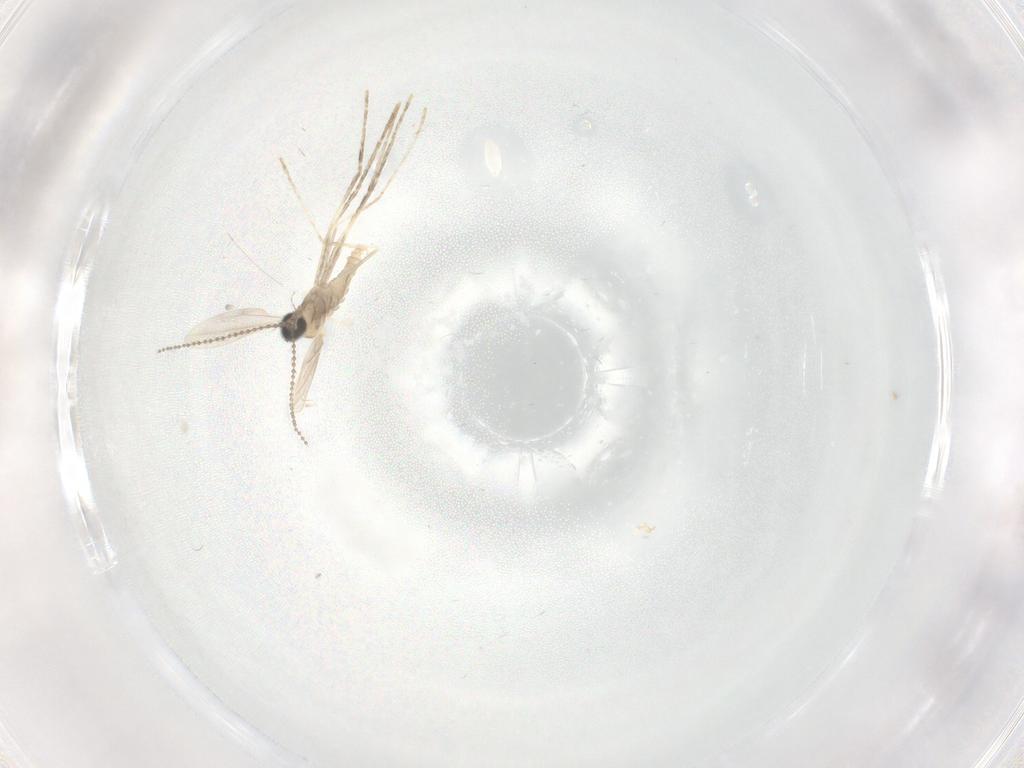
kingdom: Animalia
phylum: Arthropoda
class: Insecta
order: Diptera
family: Cecidomyiidae
